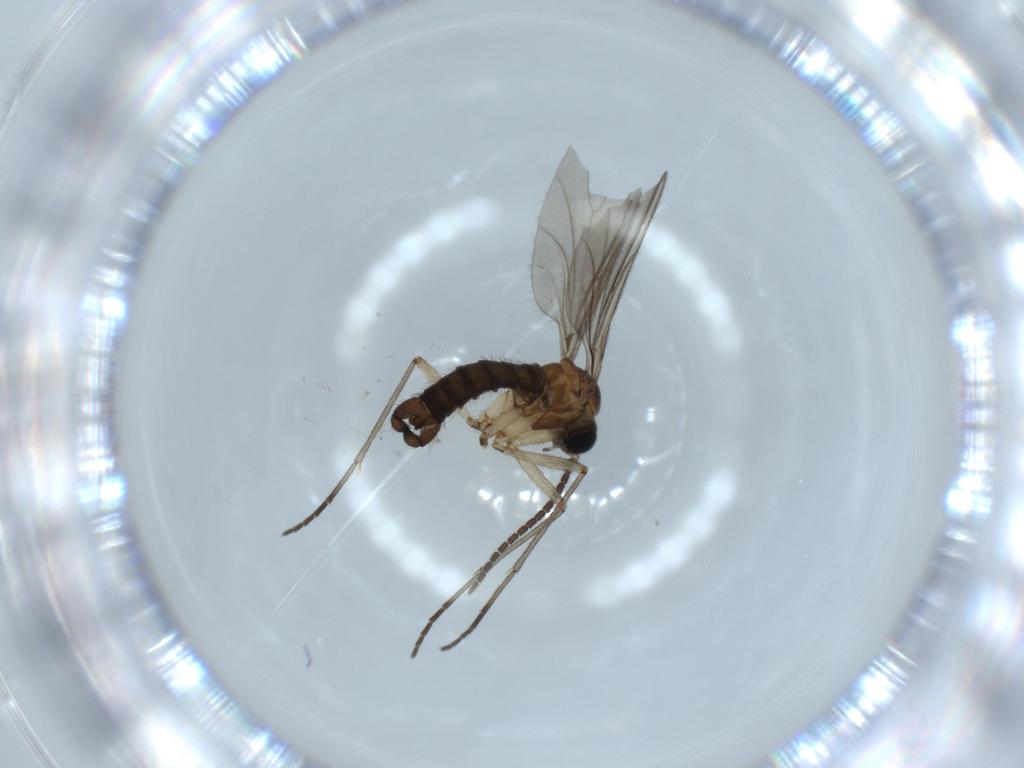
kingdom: Animalia
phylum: Arthropoda
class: Insecta
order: Diptera
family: Sciaridae
